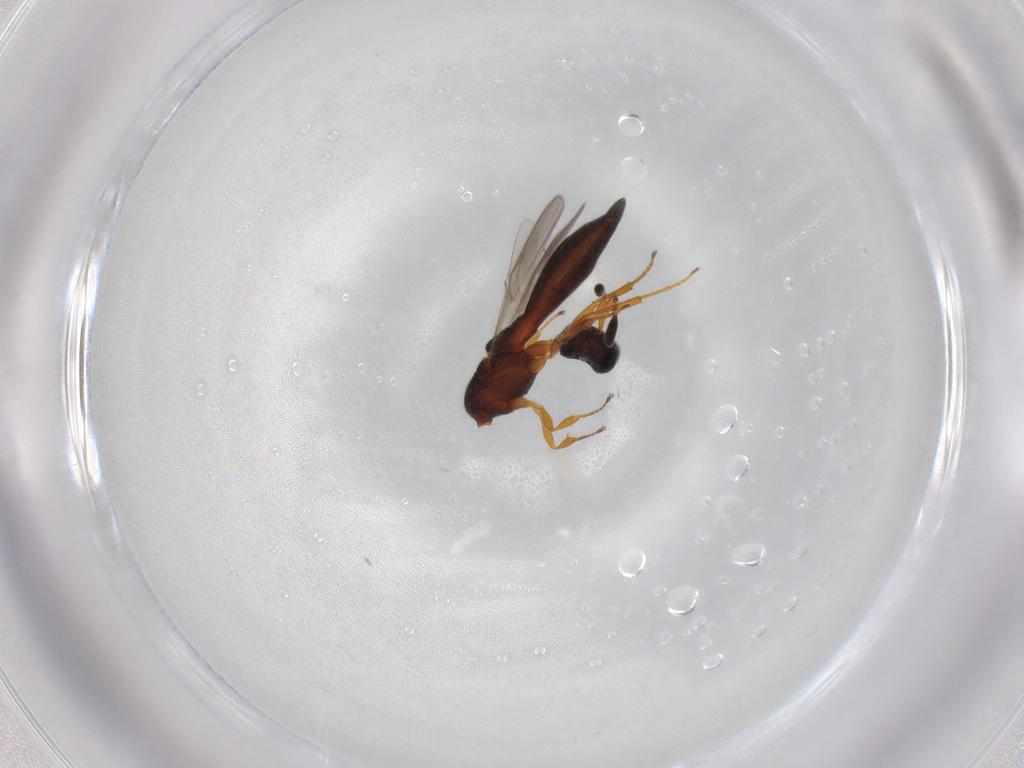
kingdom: Animalia
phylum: Arthropoda
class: Insecta
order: Hymenoptera
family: Scelionidae
